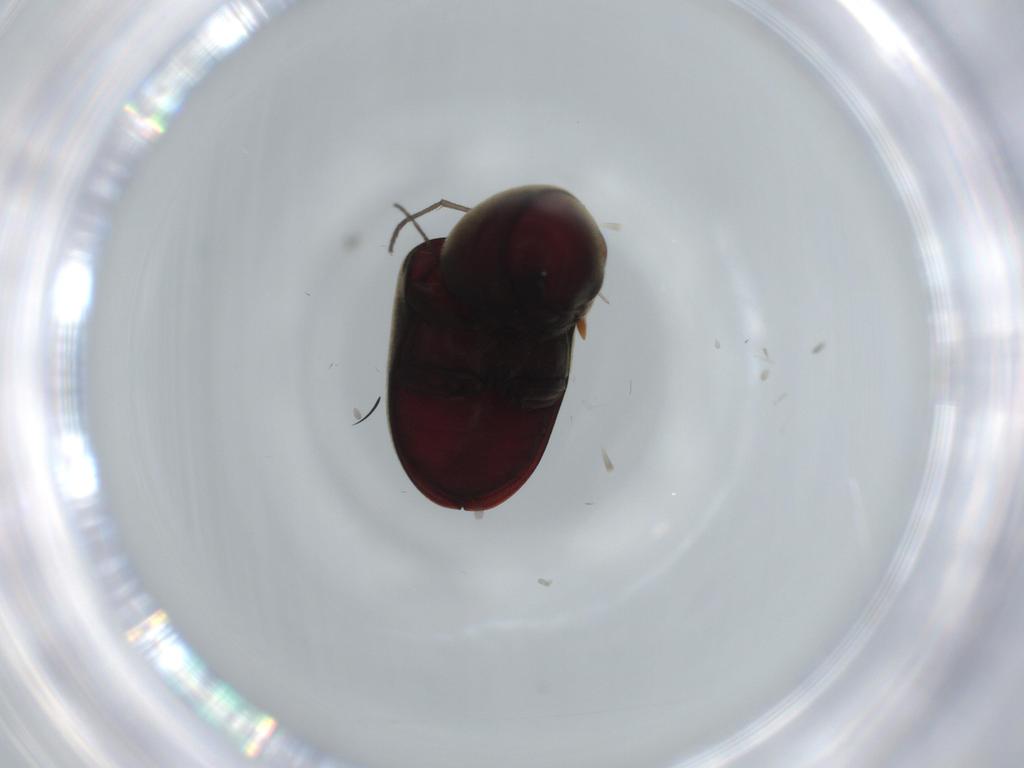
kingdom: Animalia
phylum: Arthropoda
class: Insecta
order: Coleoptera
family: Ptinidae
